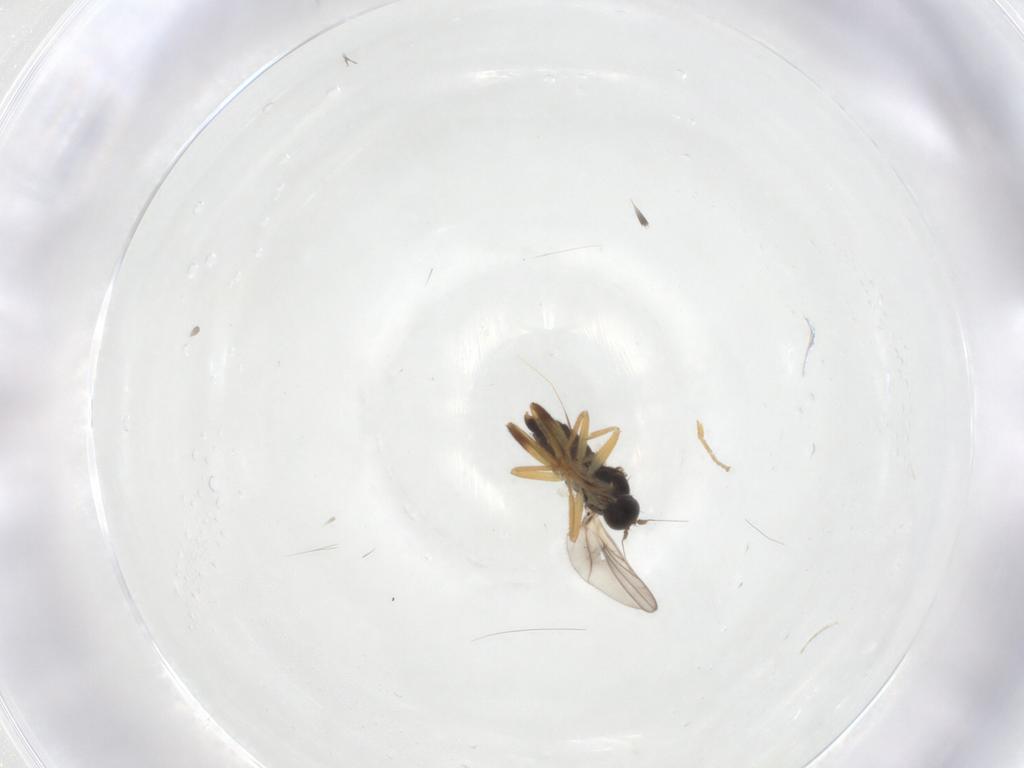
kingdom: Animalia
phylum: Arthropoda
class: Insecta
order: Diptera
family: Hybotidae
